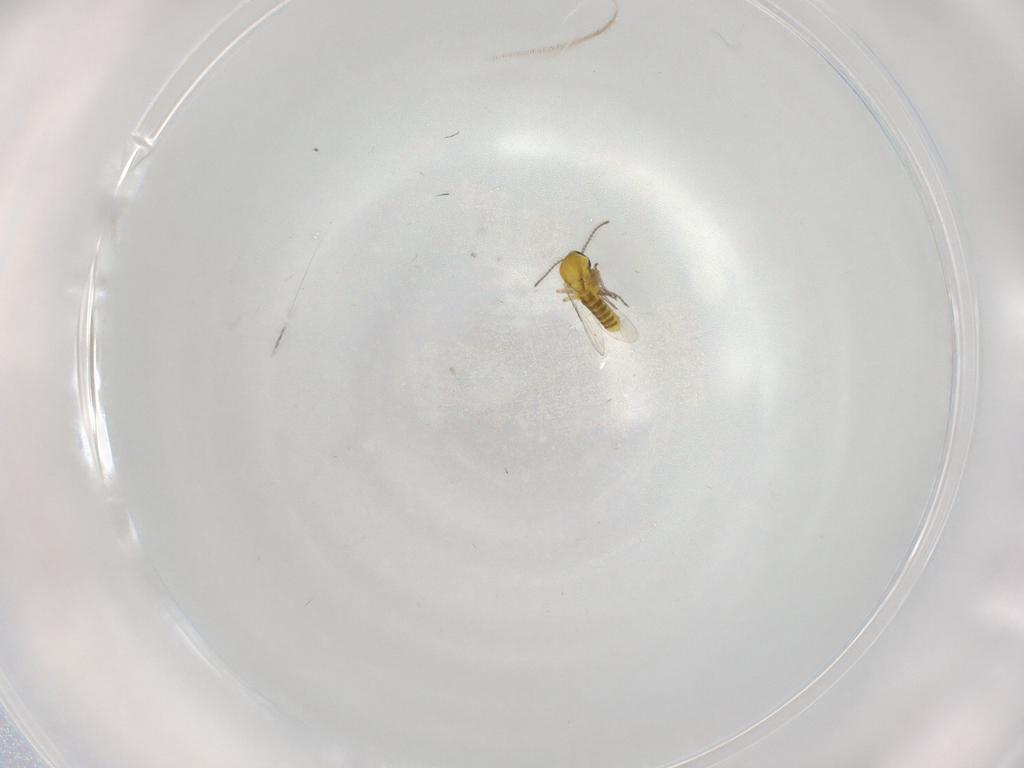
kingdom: Animalia
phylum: Arthropoda
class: Insecta
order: Diptera
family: Ceratopogonidae
